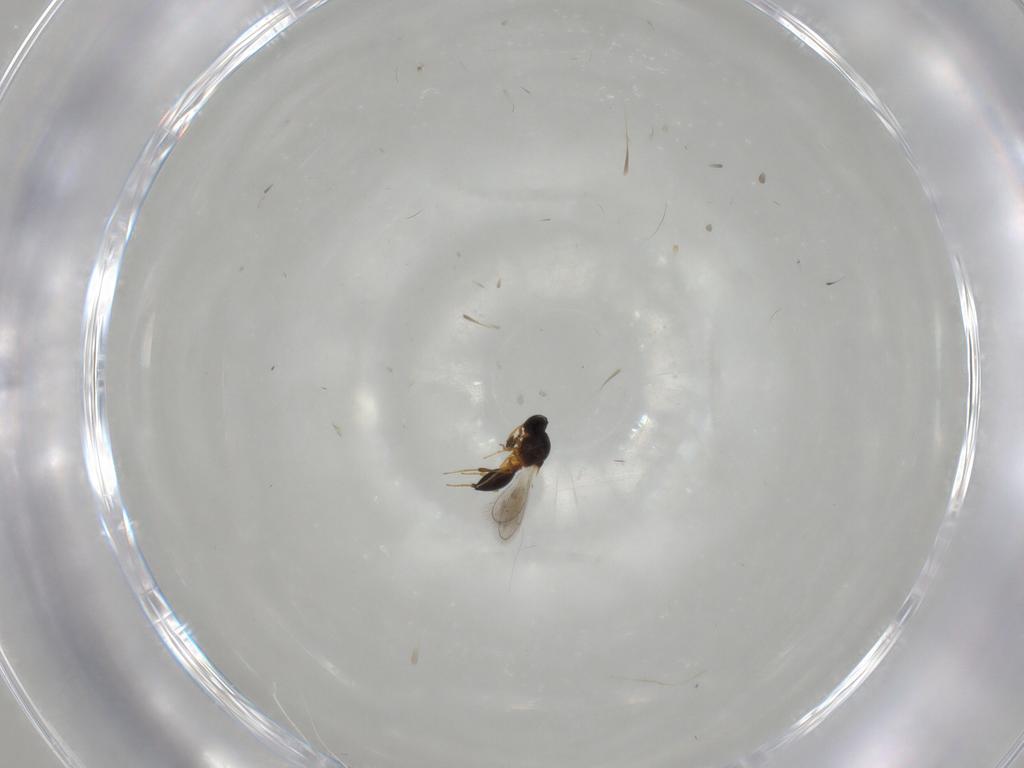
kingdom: Animalia
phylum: Arthropoda
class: Insecta
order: Hymenoptera
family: Platygastridae
